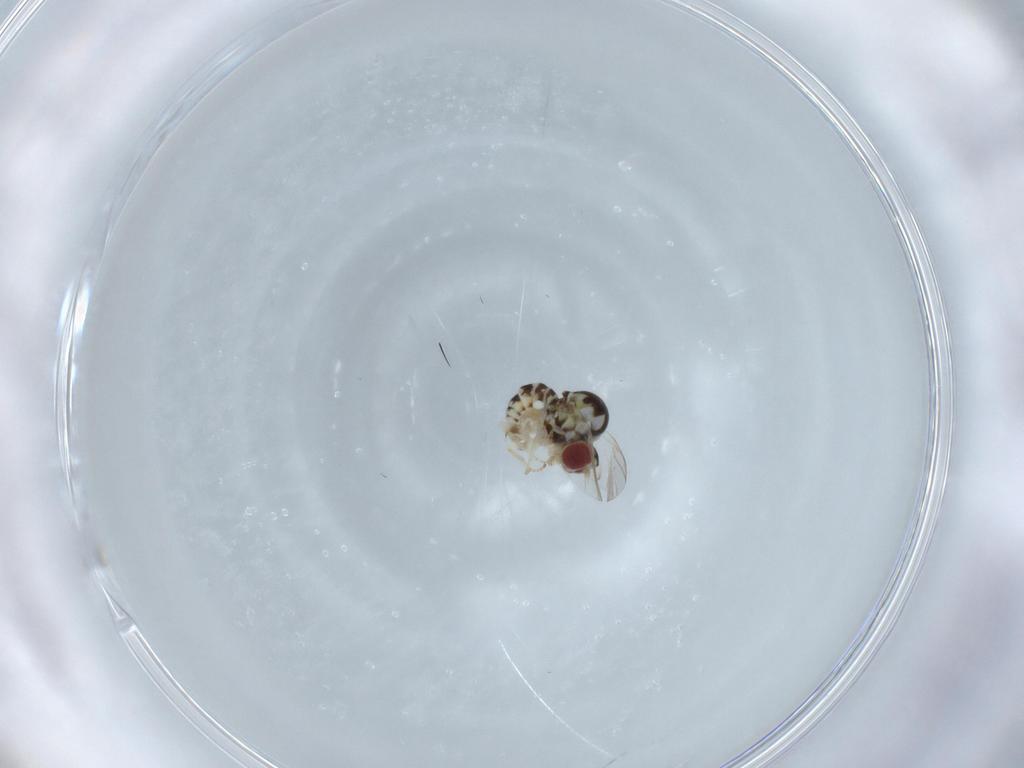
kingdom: Animalia
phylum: Arthropoda
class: Insecta
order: Diptera
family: Bombyliidae
